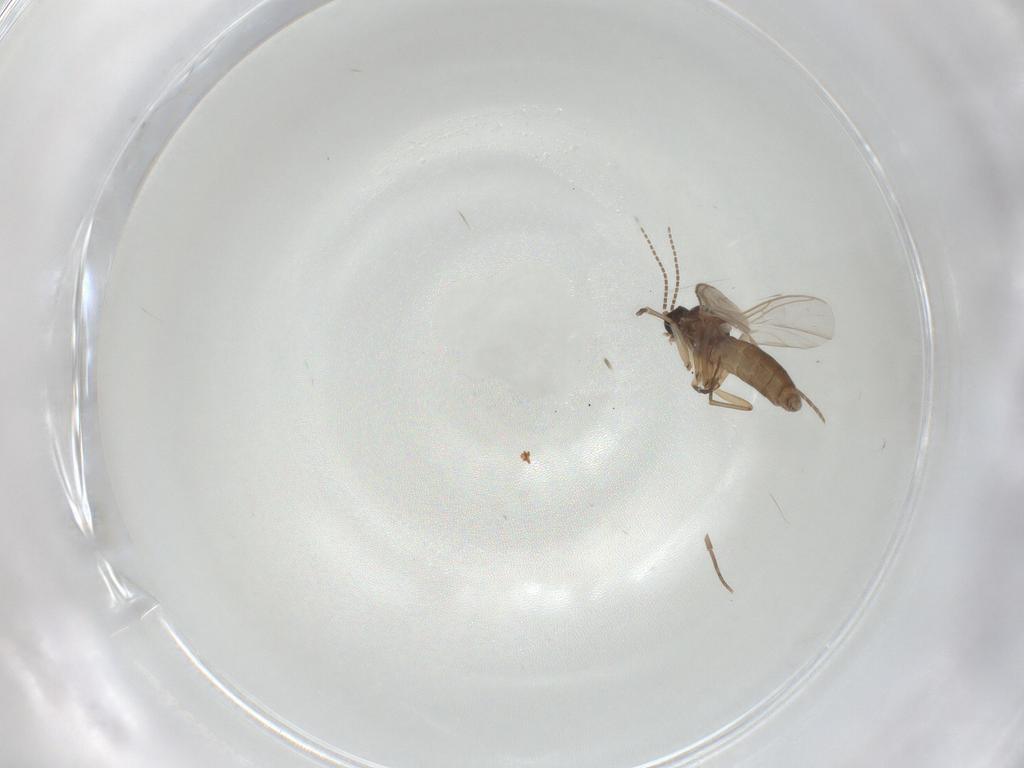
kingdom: Animalia
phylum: Arthropoda
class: Insecta
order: Diptera
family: Sciaridae
